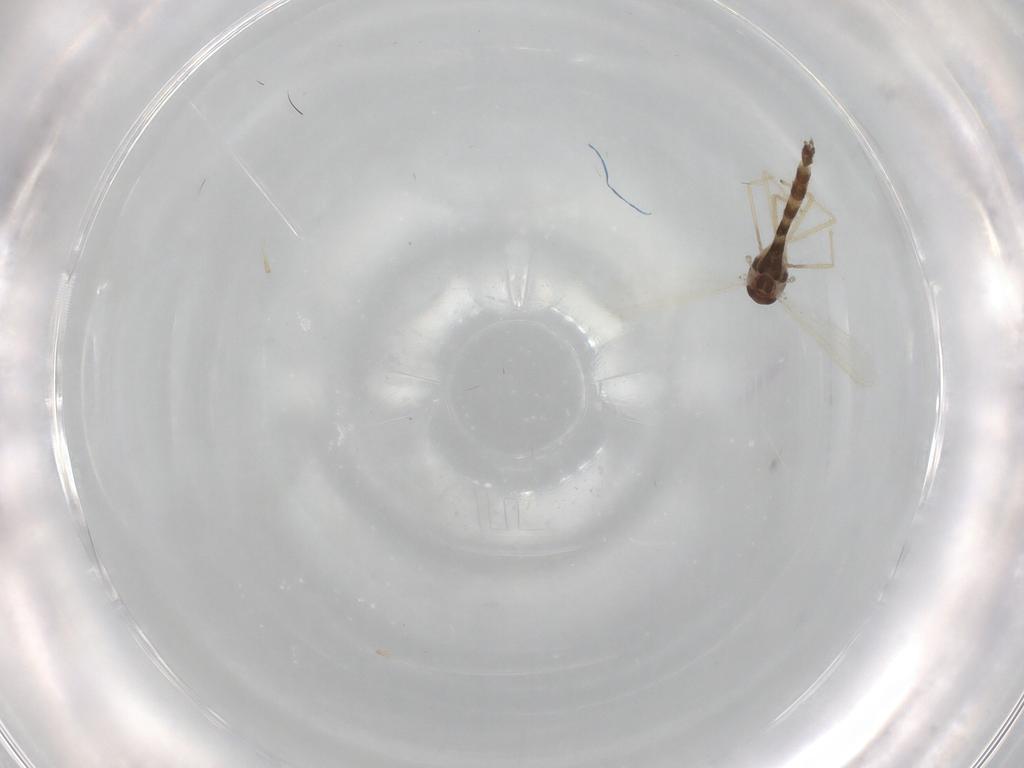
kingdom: Animalia
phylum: Arthropoda
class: Insecta
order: Diptera
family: Chironomidae
